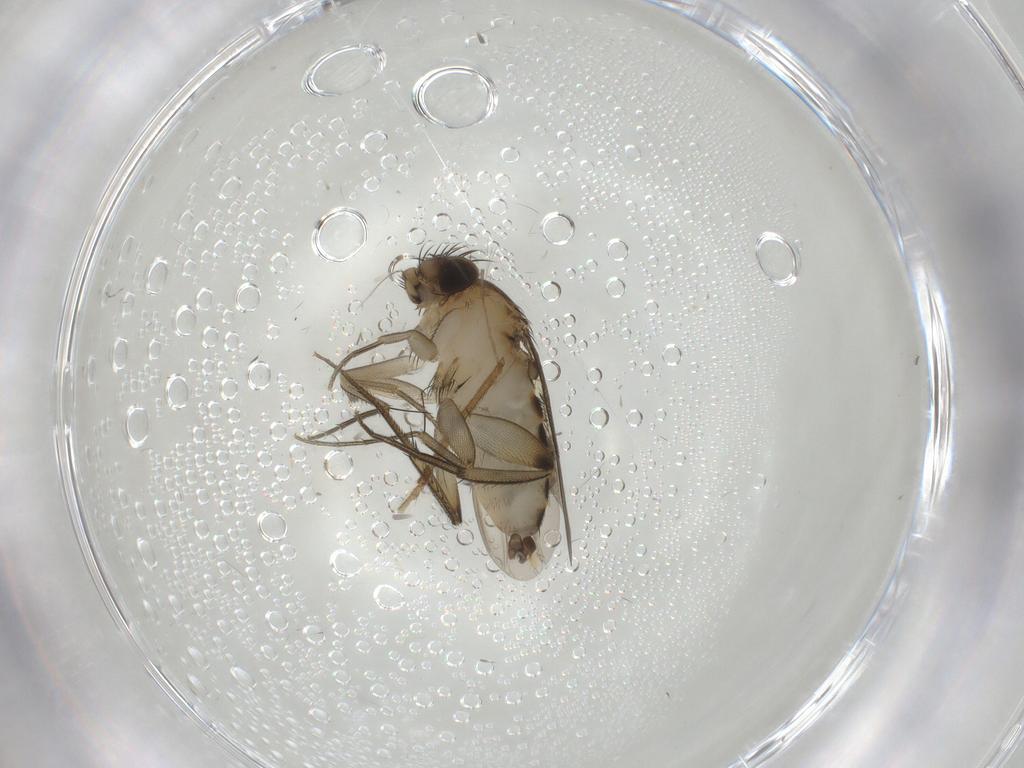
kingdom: Animalia
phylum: Arthropoda
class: Insecta
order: Diptera
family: Phoridae
